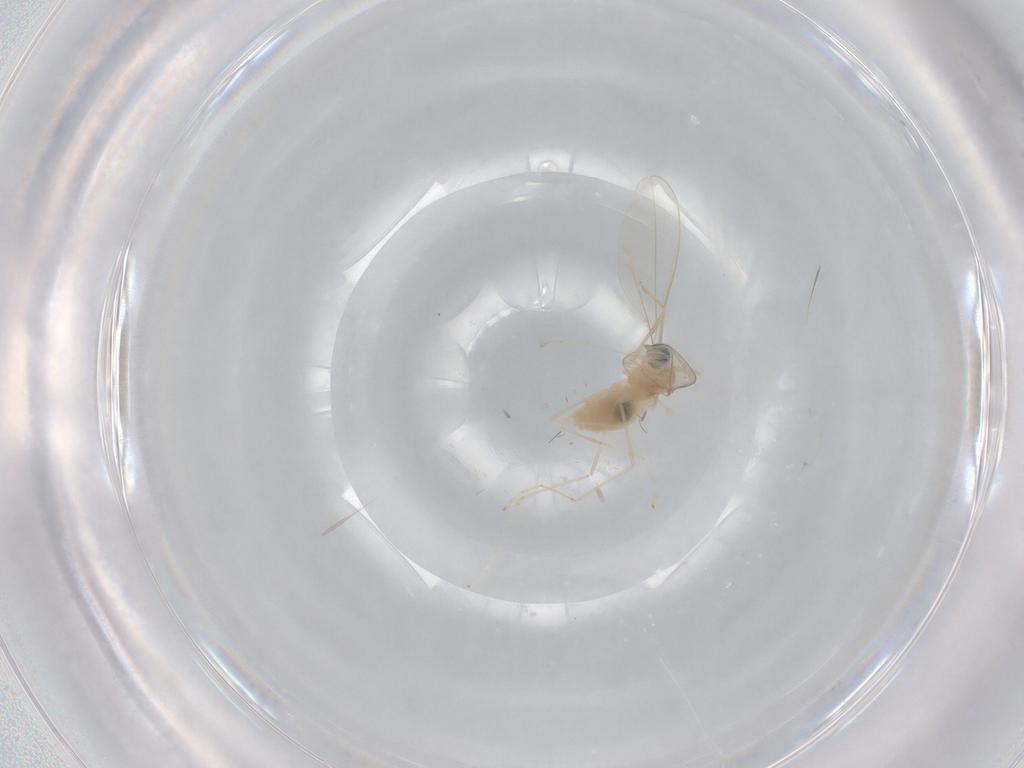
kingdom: Animalia
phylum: Arthropoda
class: Insecta
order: Diptera
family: Cecidomyiidae
